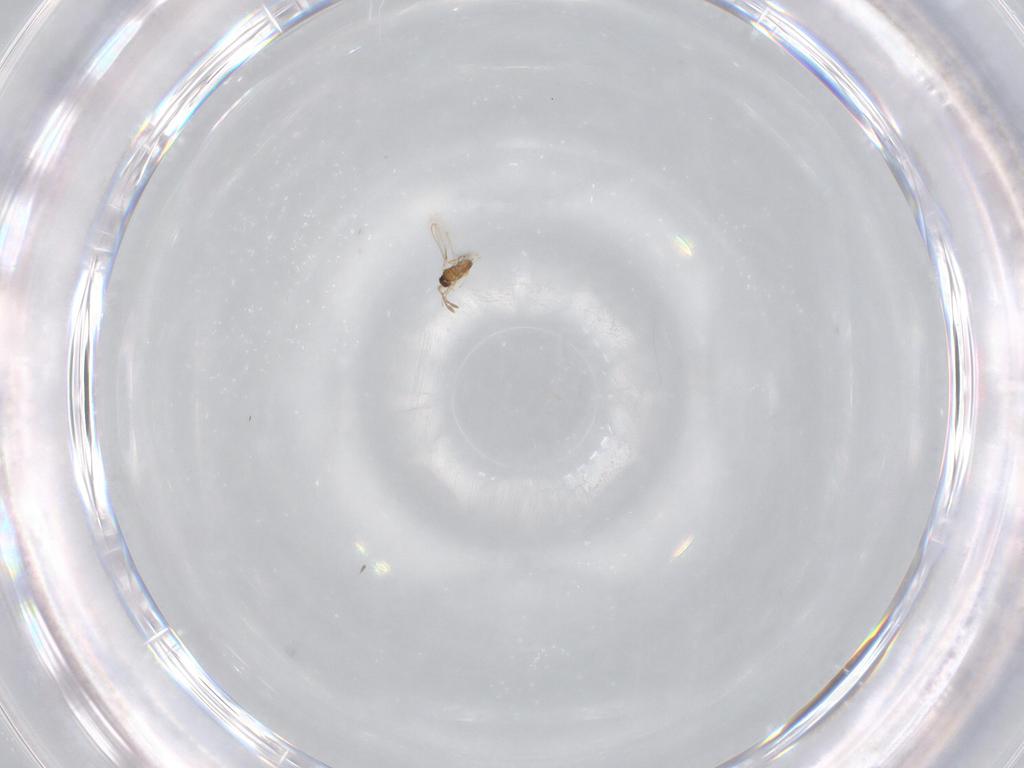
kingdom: Animalia
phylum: Arthropoda
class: Insecta
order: Hymenoptera
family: Mymaridae
